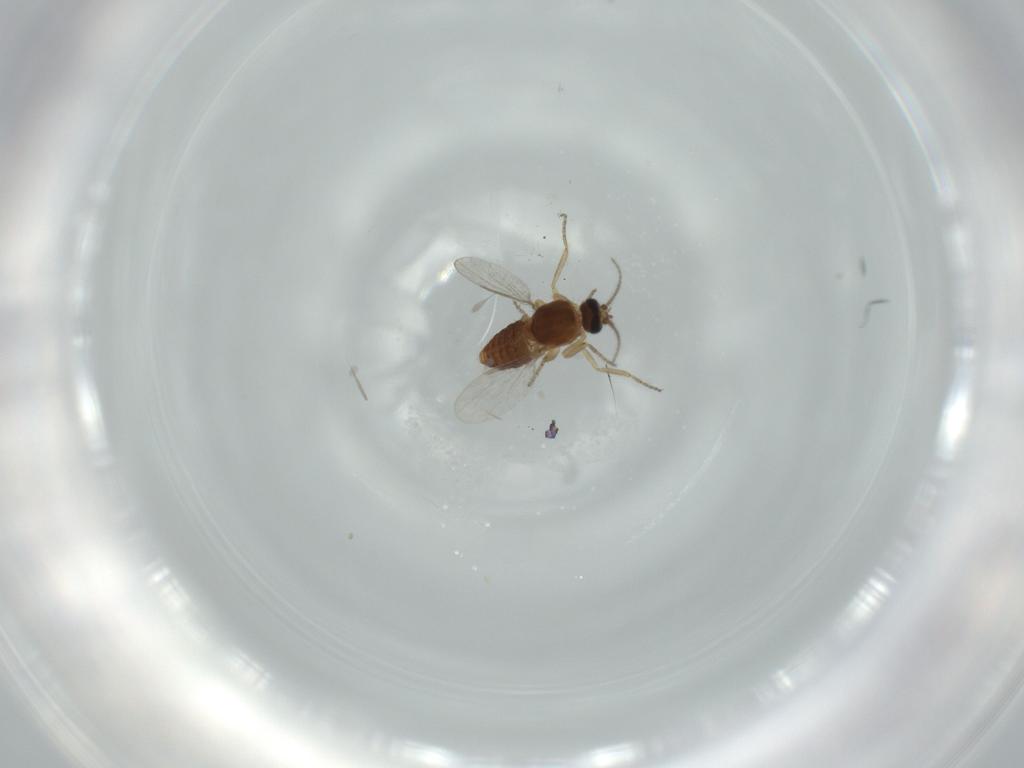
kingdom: Animalia
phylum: Arthropoda
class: Insecta
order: Diptera
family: Ceratopogonidae
